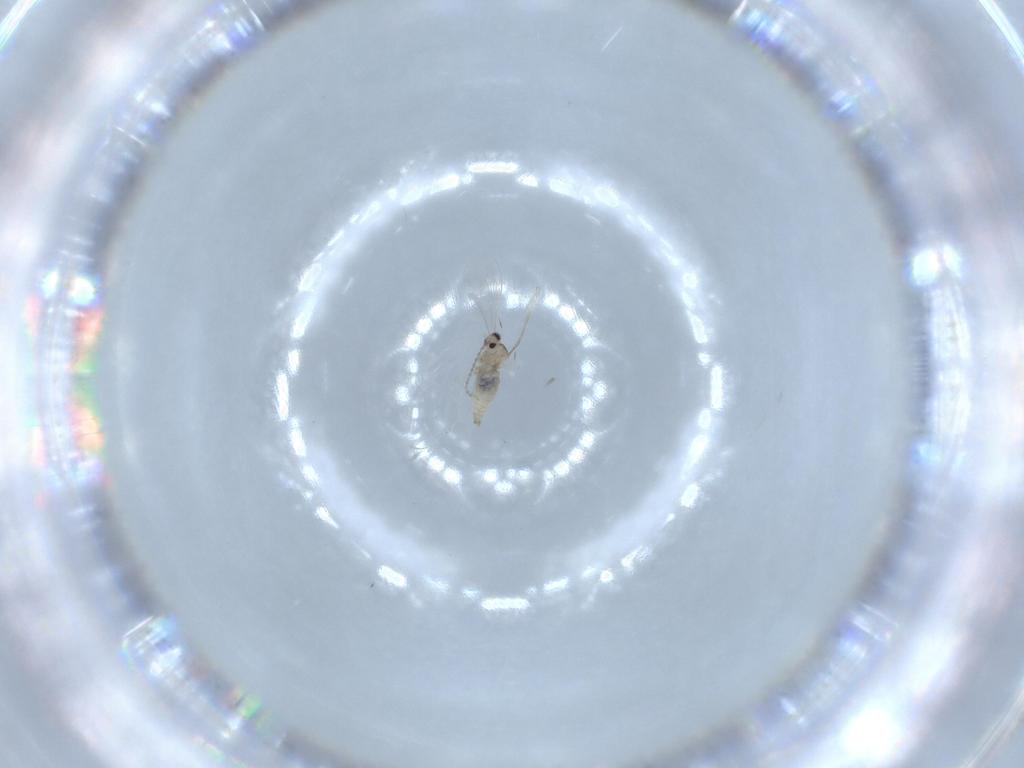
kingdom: Animalia
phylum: Arthropoda
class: Insecta
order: Diptera
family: Cecidomyiidae
